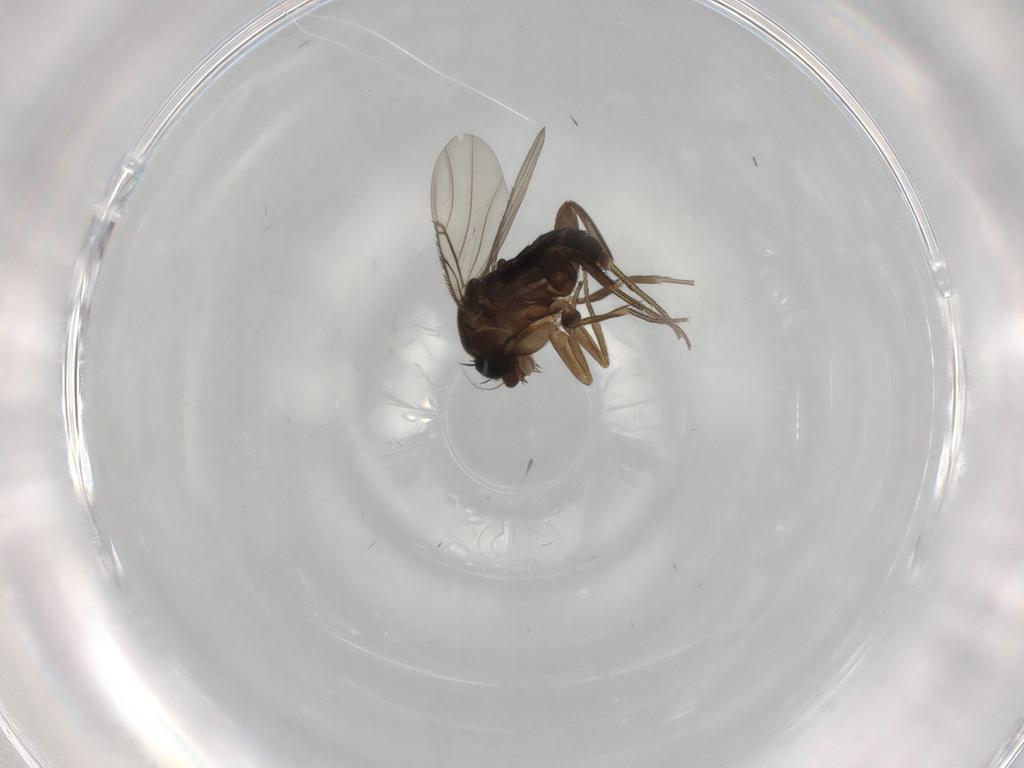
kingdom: Animalia
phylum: Arthropoda
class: Insecta
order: Diptera
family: Phoridae
